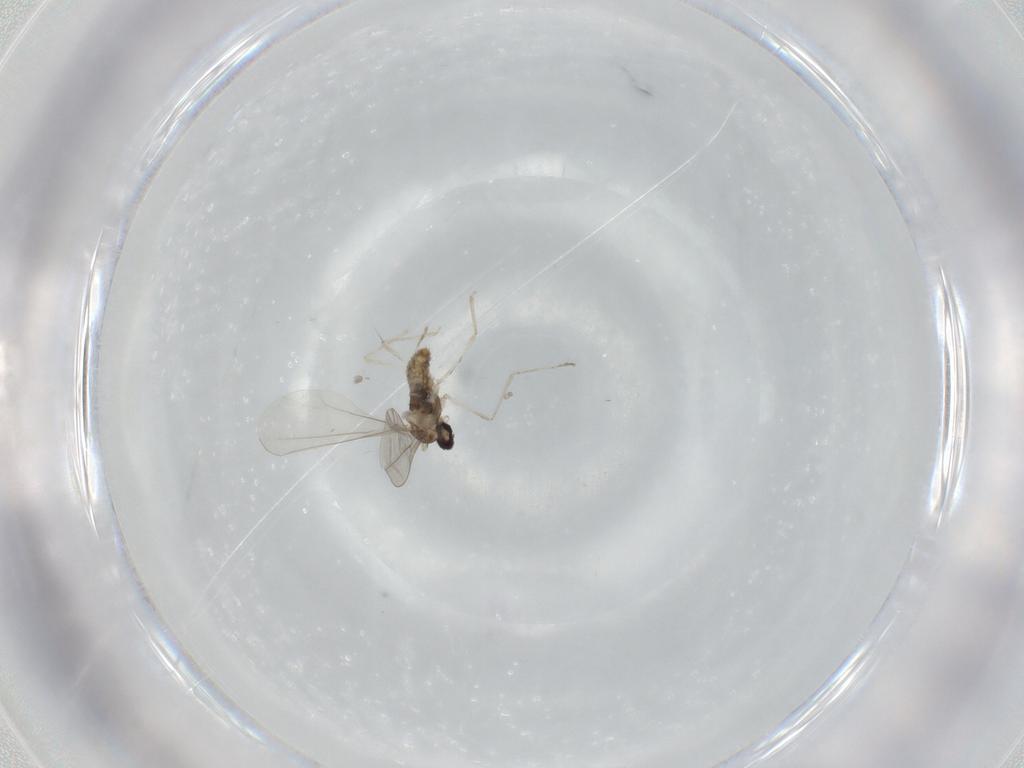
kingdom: Animalia
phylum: Arthropoda
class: Insecta
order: Diptera
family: Cecidomyiidae
